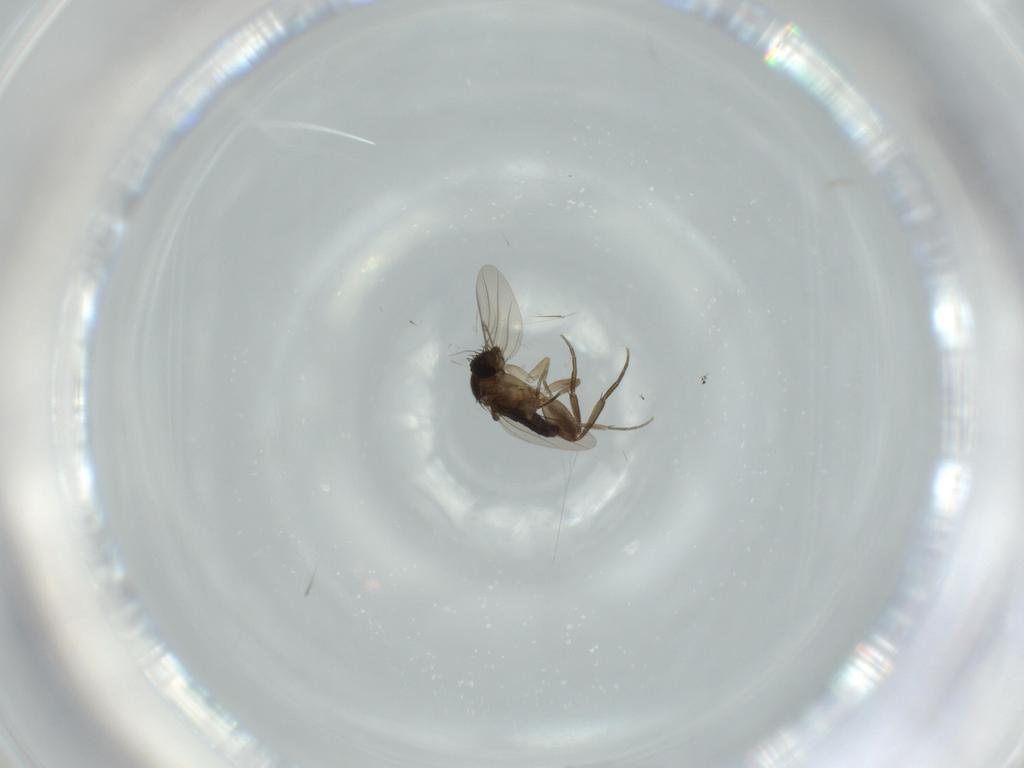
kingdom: Animalia
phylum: Arthropoda
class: Insecta
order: Diptera
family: Phoridae
